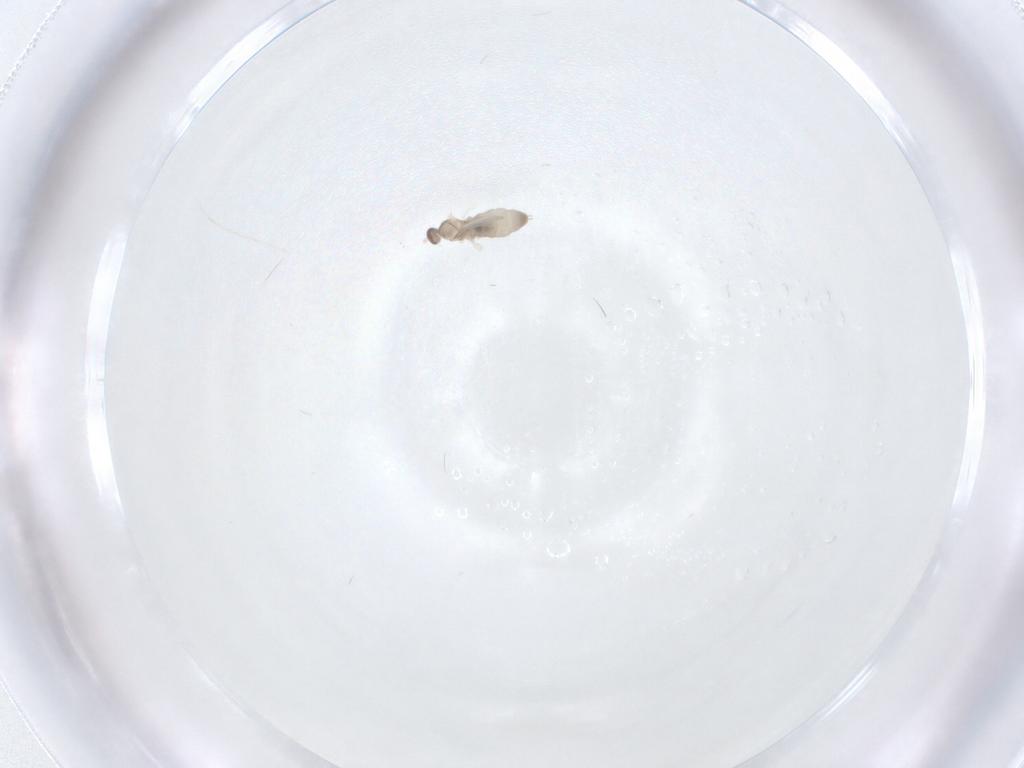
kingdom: Animalia
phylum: Arthropoda
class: Insecta
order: Diptera
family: Cecidomyiidae
